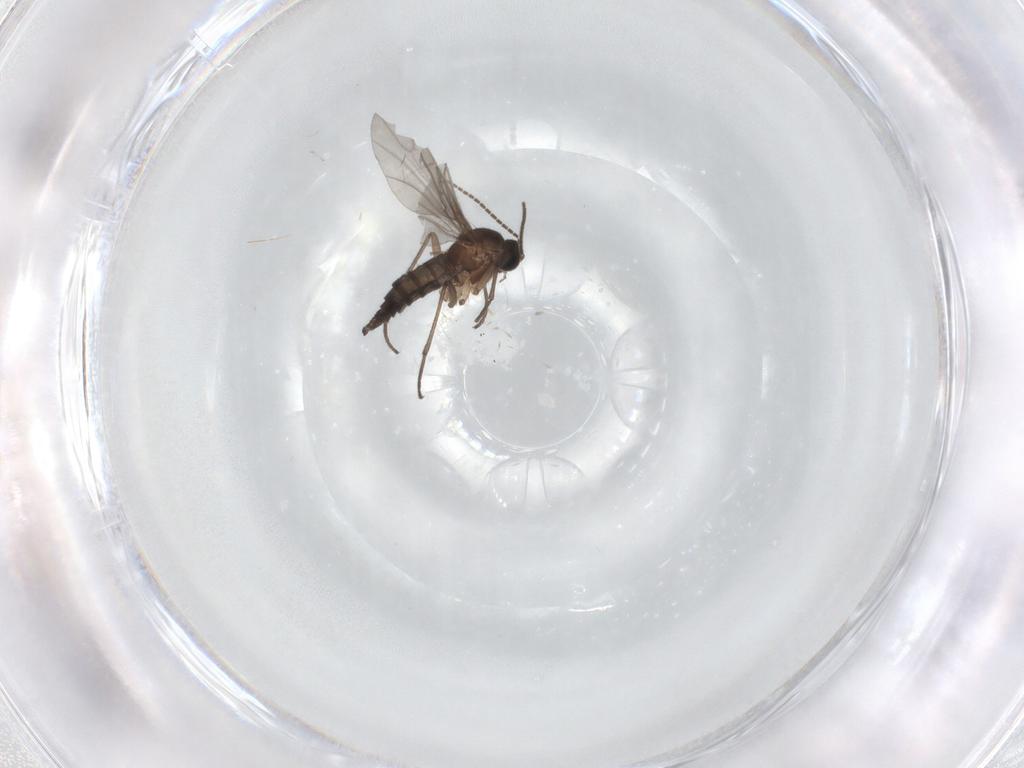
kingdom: Animalia
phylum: Arthropoda
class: Insecta
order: Diptera
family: Sciaridae
